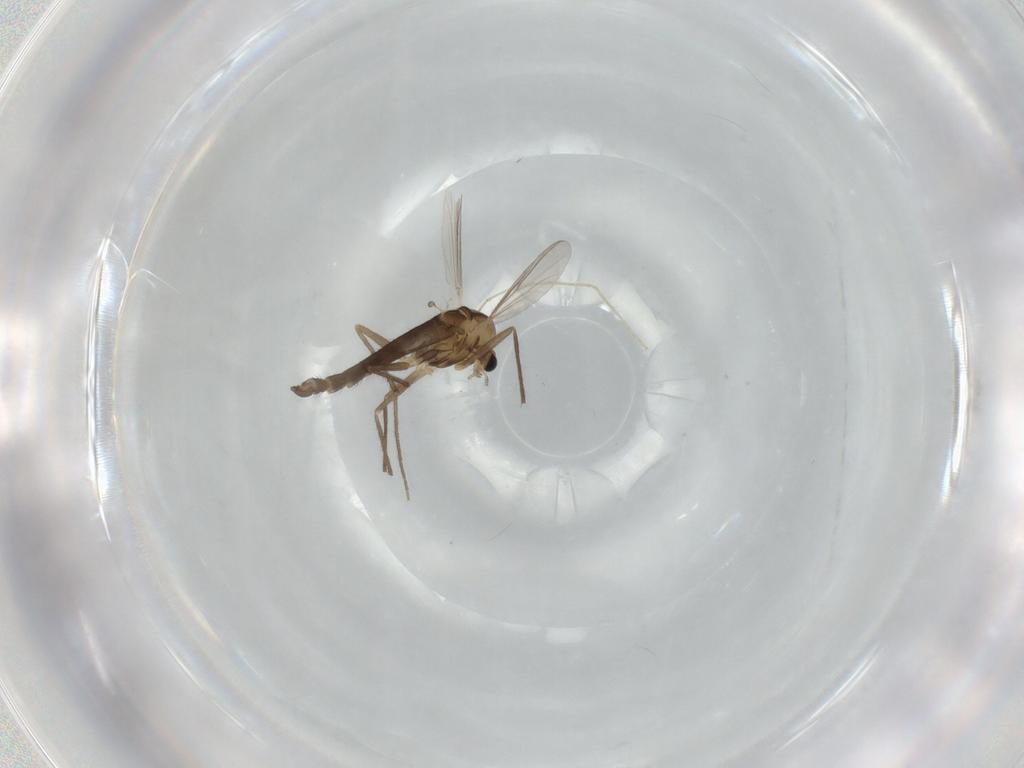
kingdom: Animalia
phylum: Arthropoda
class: Insecta
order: Diptera
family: Chironomidae
